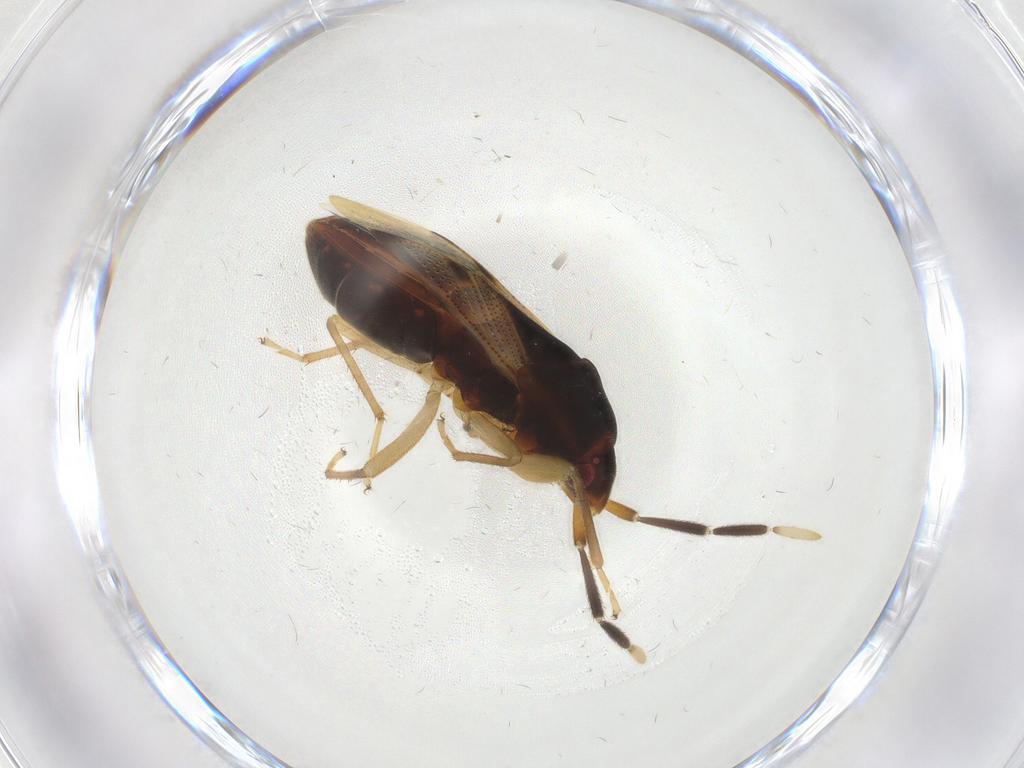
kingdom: Animalia
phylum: Arthropoda
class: Insecta
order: Hemiptera
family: Rhyparochromidae
